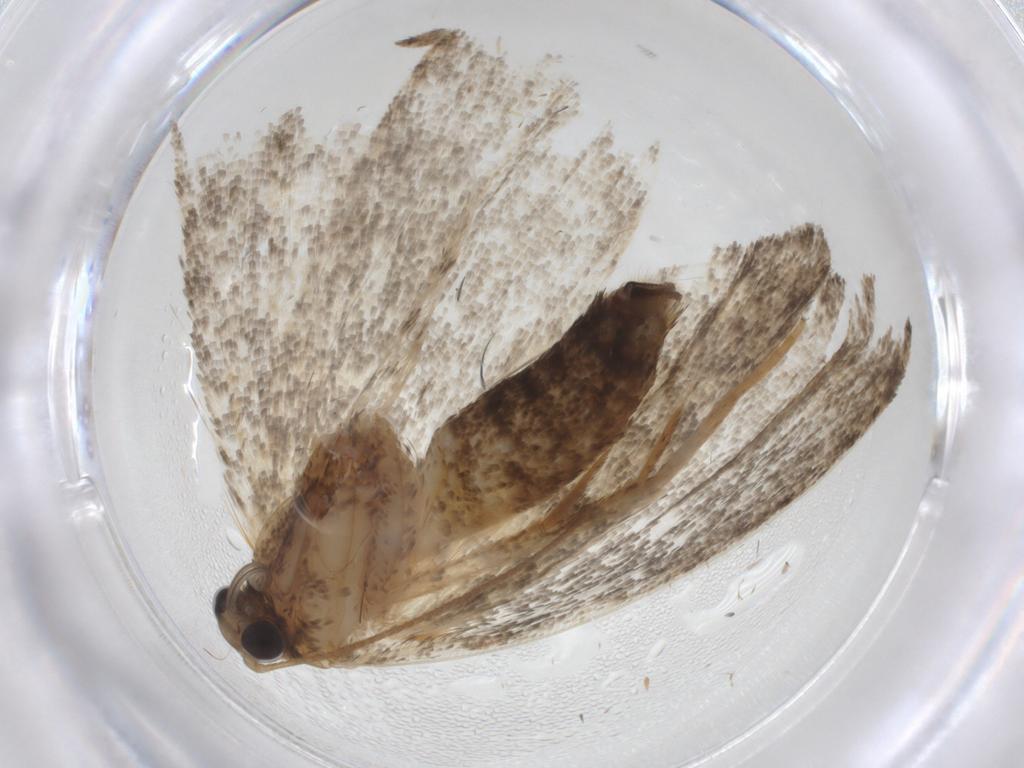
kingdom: Animalia
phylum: Arthropoda
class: Insecta
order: Lepidoptera
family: Tortricidae
